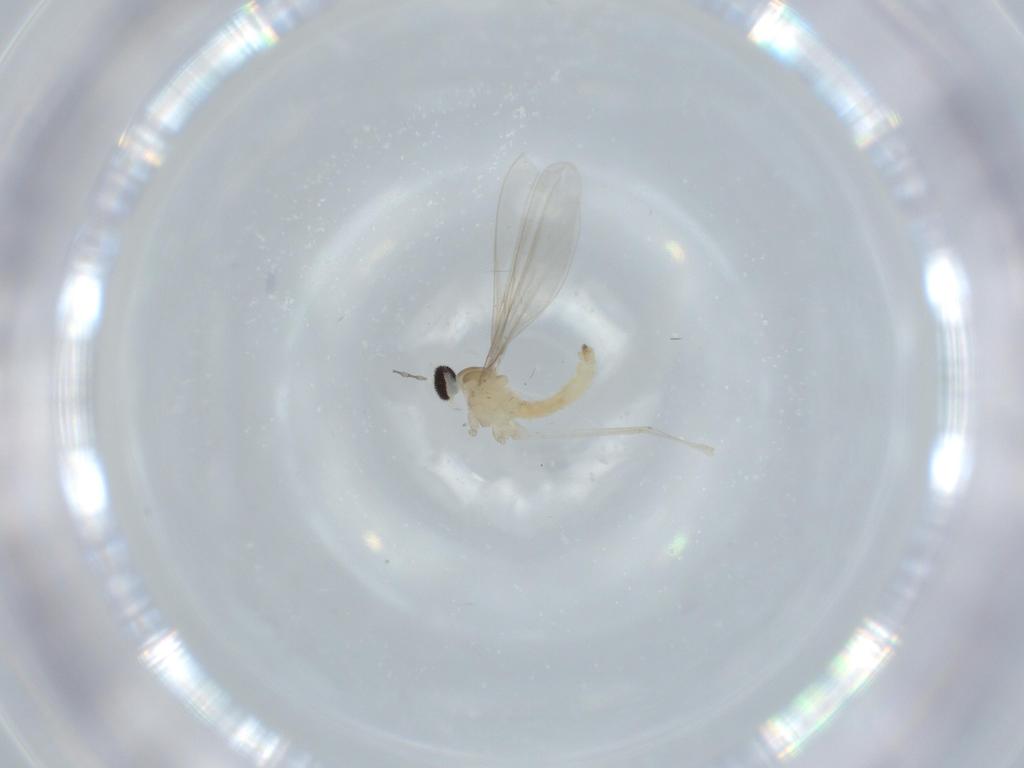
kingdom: Animalia
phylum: Arthropoda
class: Insecta
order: Diptera
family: Cecidomyiidae
